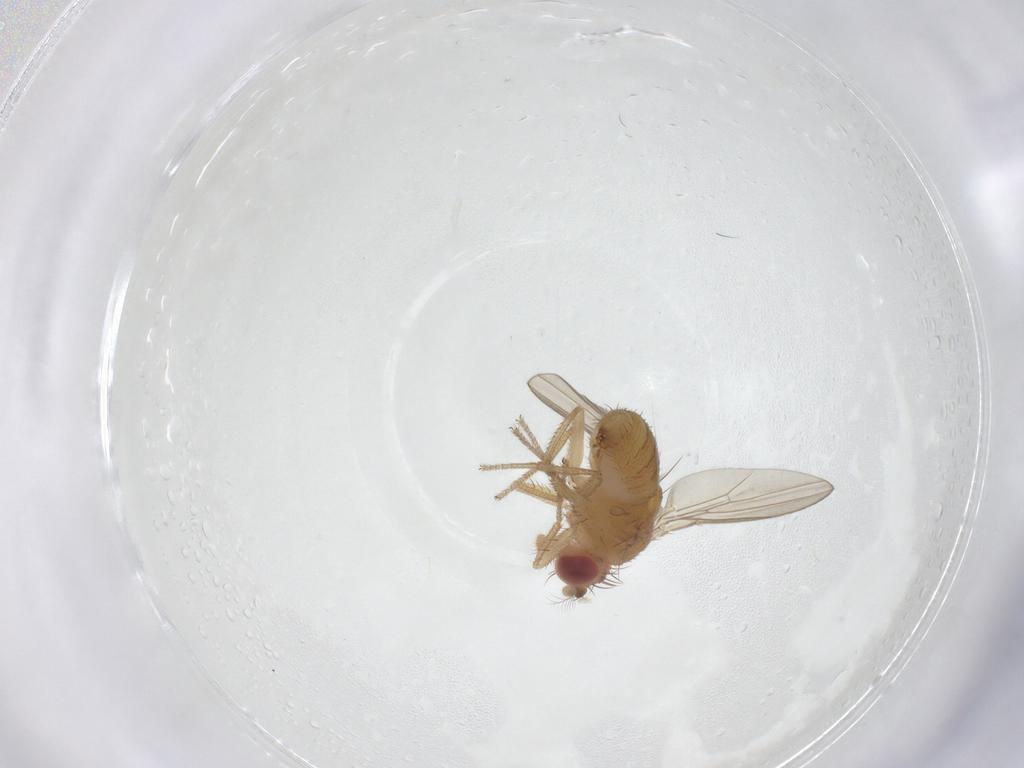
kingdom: Animalia
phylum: Arthropoda
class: Insecta
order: Diptera
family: Drosophilidae
